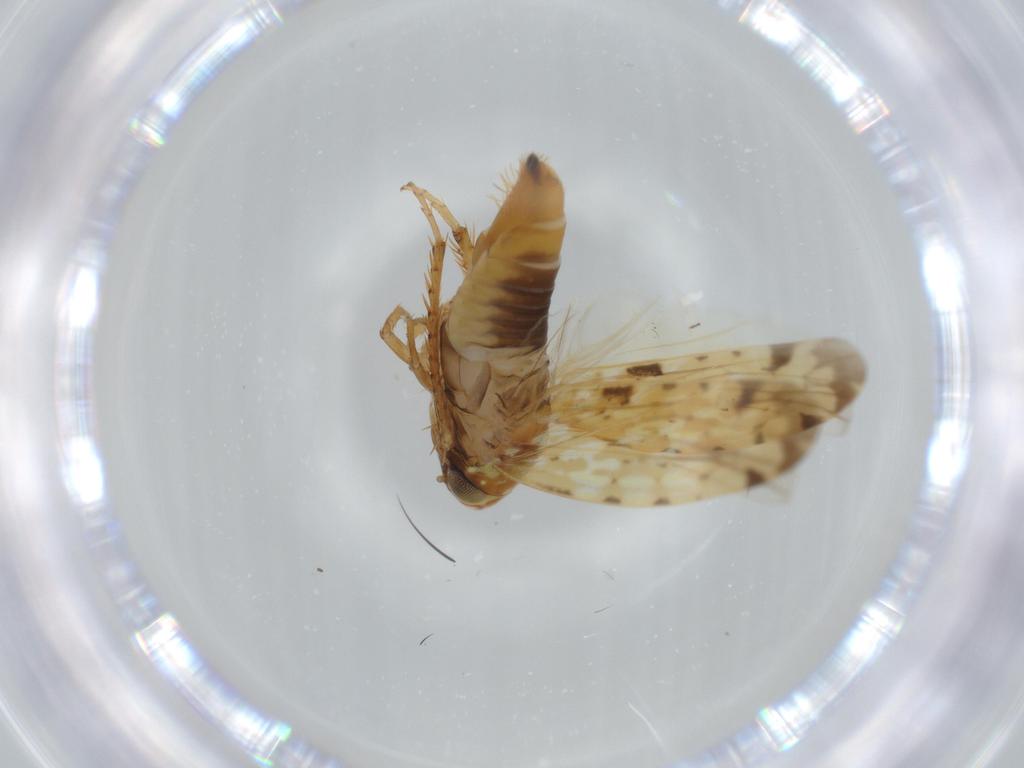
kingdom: Animalia
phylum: Arthropoda
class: Insecta
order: Hemiptera
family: Cicadellidae
